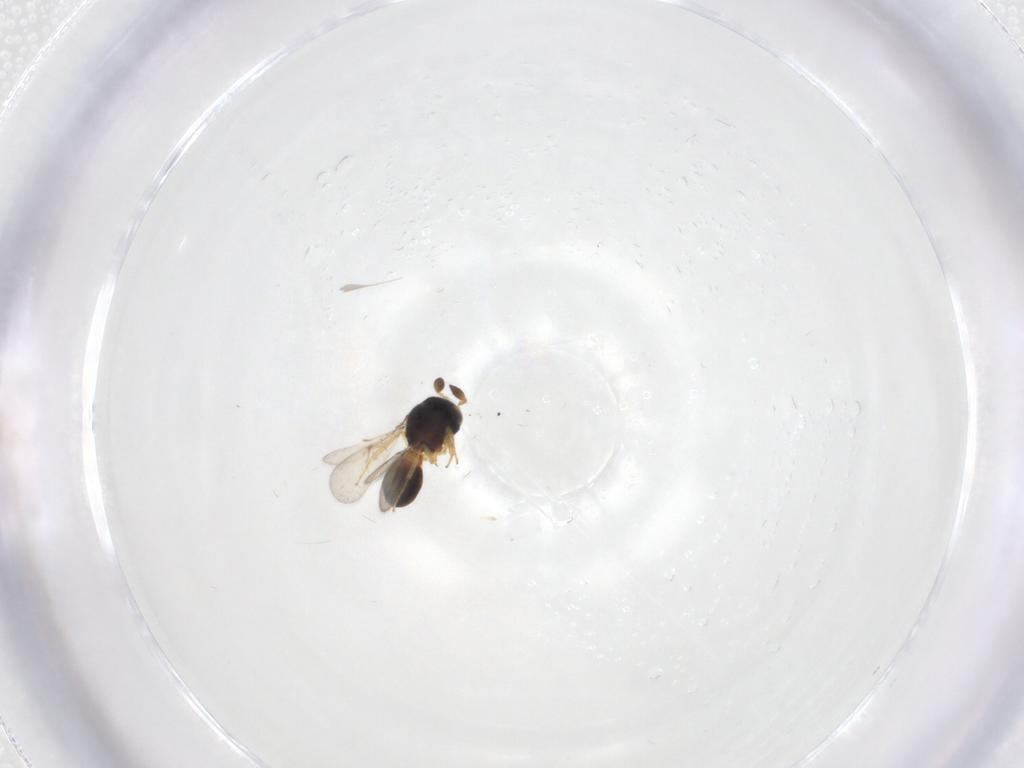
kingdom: Animalia
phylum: Arthropoda
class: Insecta
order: Hymenoptera
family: Scelionidae
